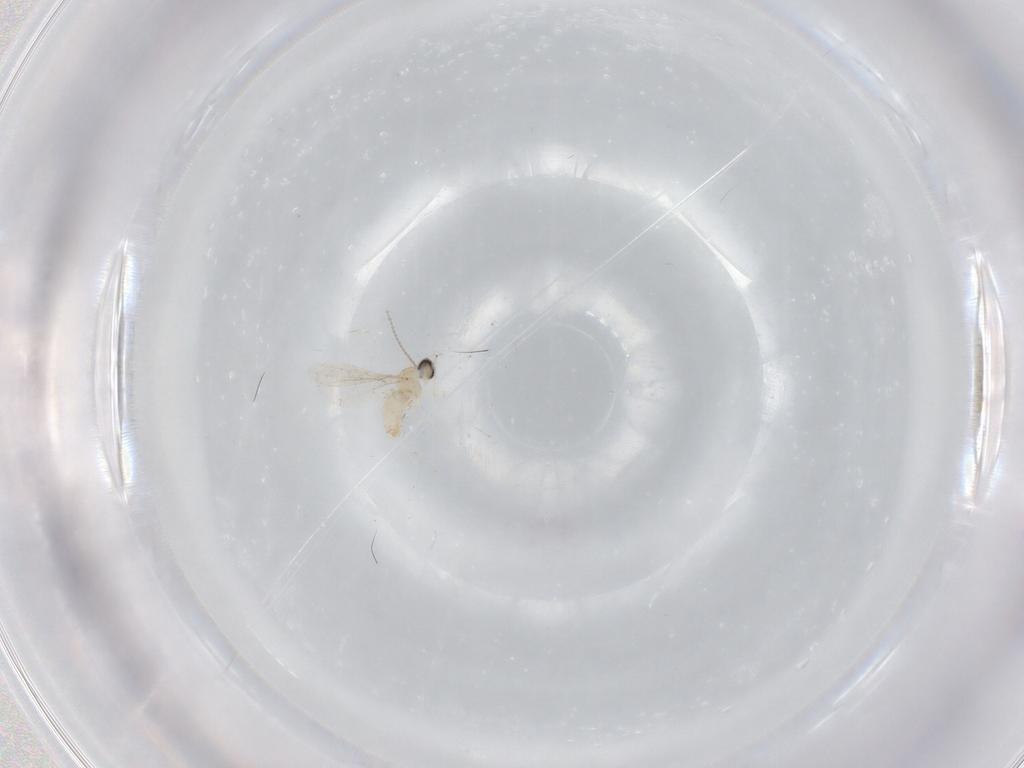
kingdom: Animalia
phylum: Arthropoda
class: Insecta
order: Diptera
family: Cecidomyiidae
